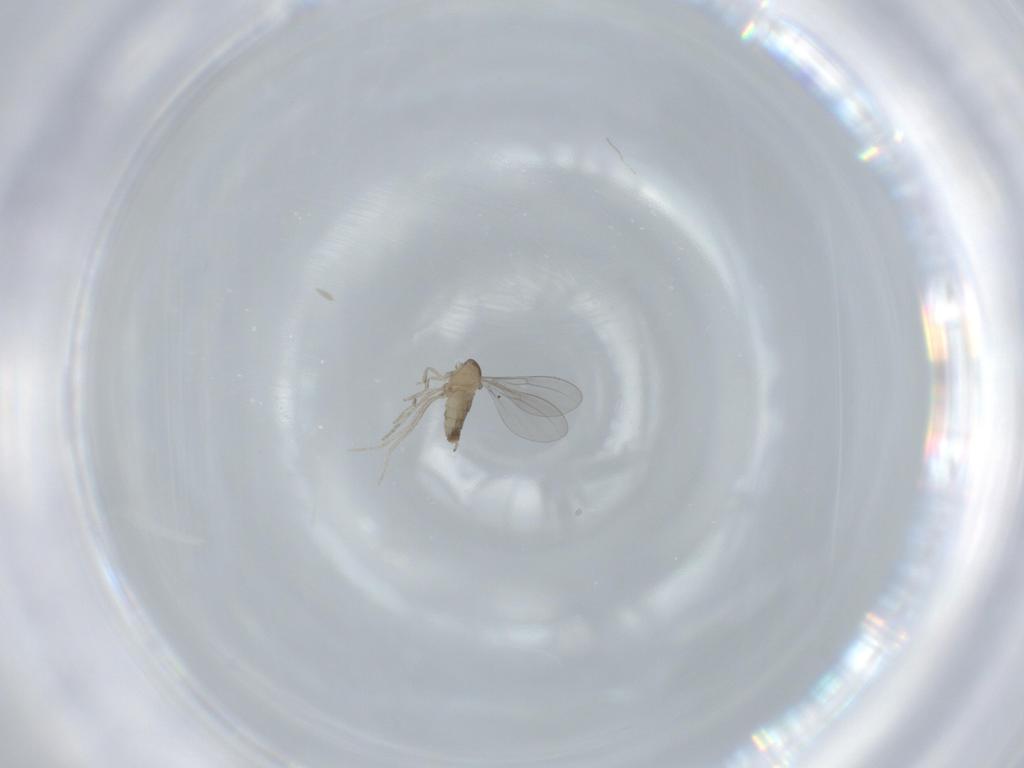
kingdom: Animalia
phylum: Arthropoda
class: Insecta
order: Diptera
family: Cecidomyiidae
